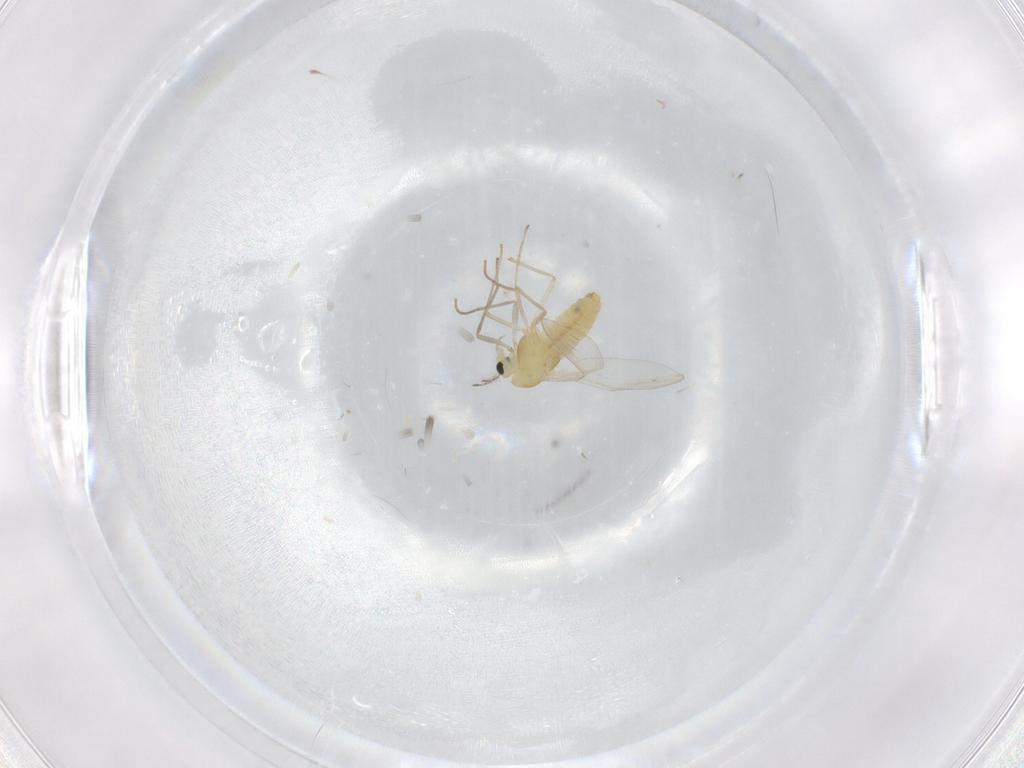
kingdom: Animalia
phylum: Arthropoda
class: Insecta
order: Diptera
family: Chironomidae
